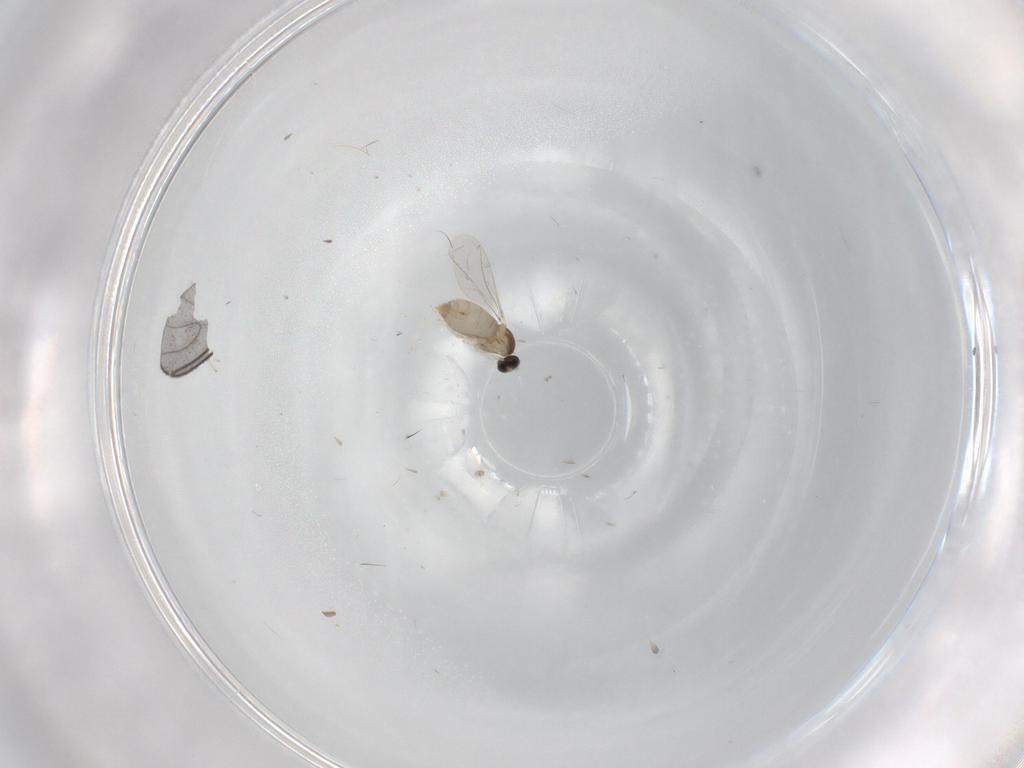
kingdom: Animalia
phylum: Arthropoda
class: Insecta
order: Diptera
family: Cecidomyiidae
